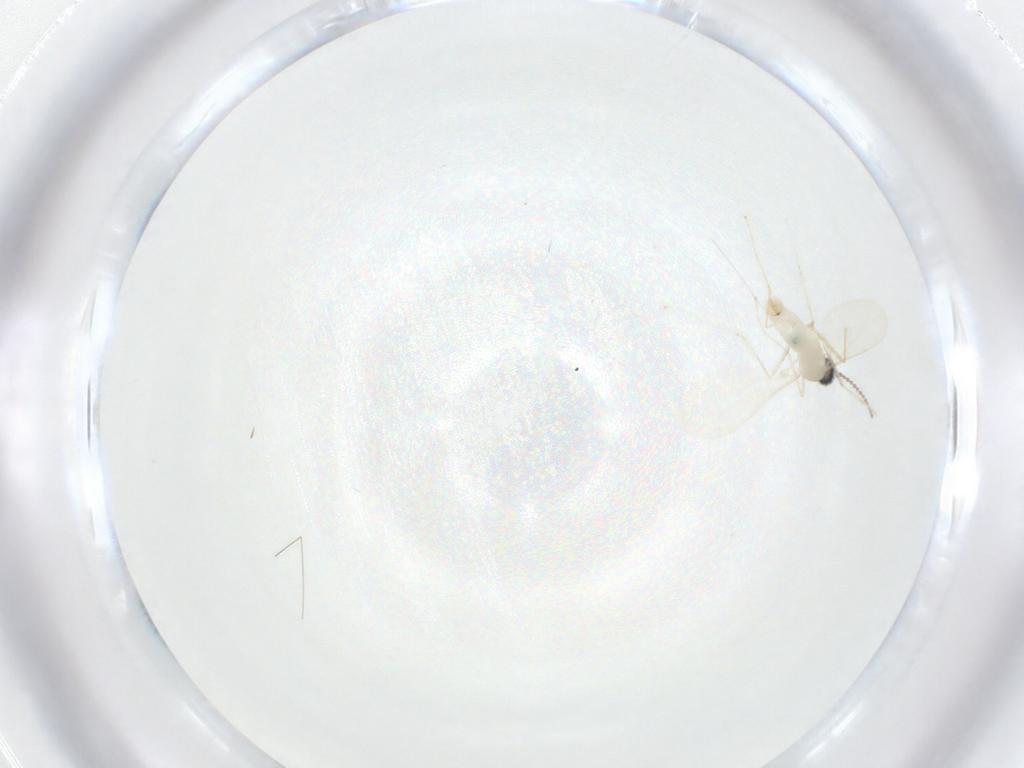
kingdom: Animalia
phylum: Arthropoda
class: Insecta
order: Diptera
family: Cecidomyiidae
